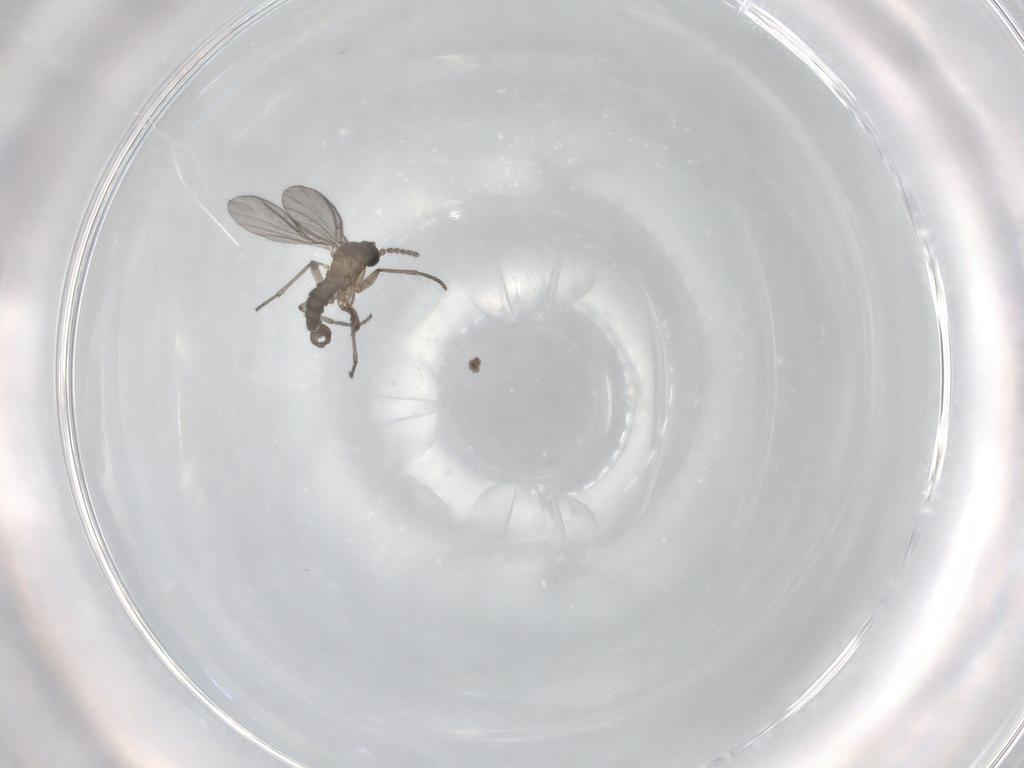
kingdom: Animalia
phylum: Arthropoda
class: Insecta
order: Diptera
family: Sciaridae
